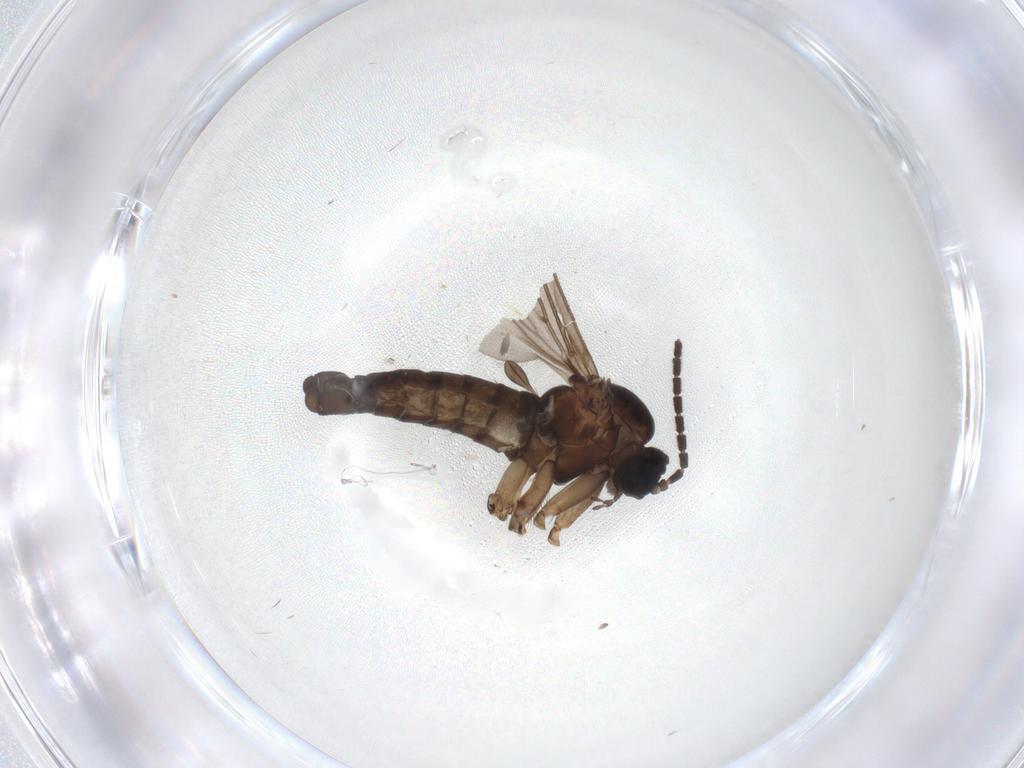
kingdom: Animalia
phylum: Arthropoda
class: Insecta
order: Diptera
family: Sciaridae
